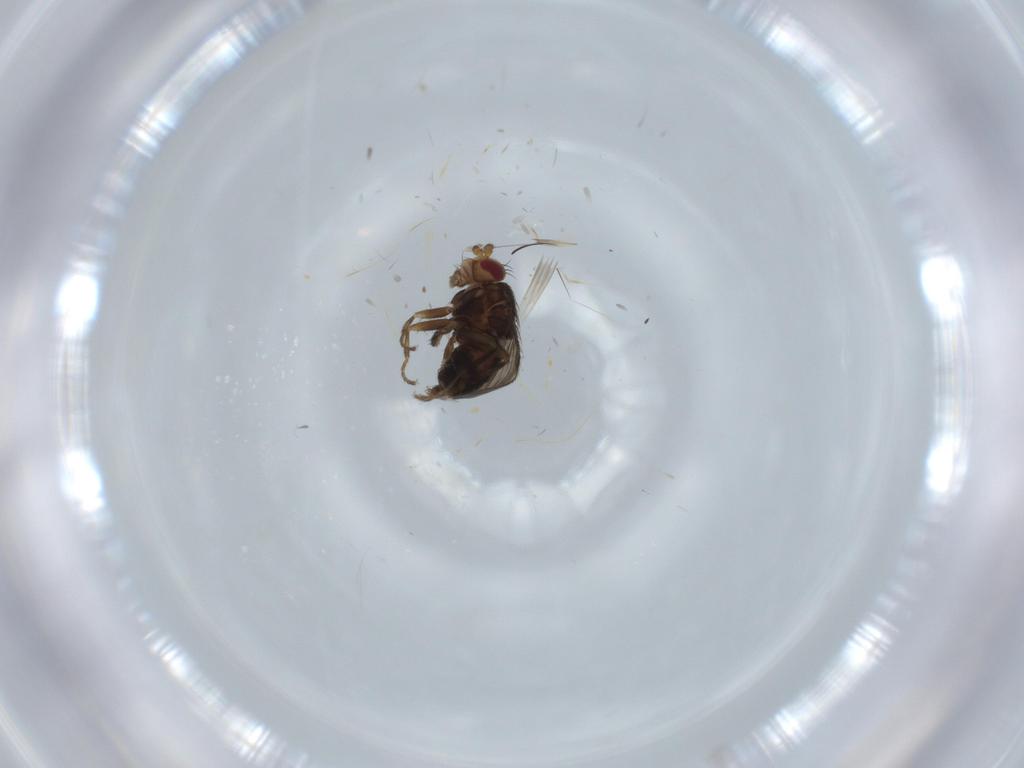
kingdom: Animalia
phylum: Arthropoda
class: Insecta
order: Diptera
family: Sphaeroceridae
